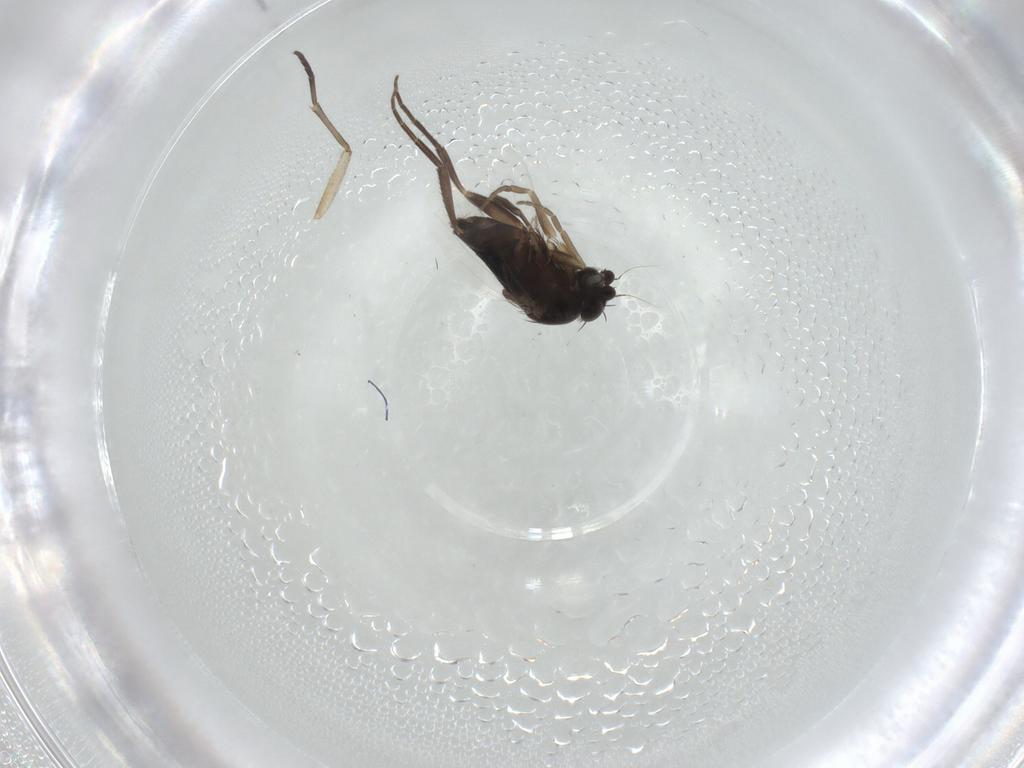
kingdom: Animalia
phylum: Arthropoda
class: Insecta
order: Diptera
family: Phoridae
